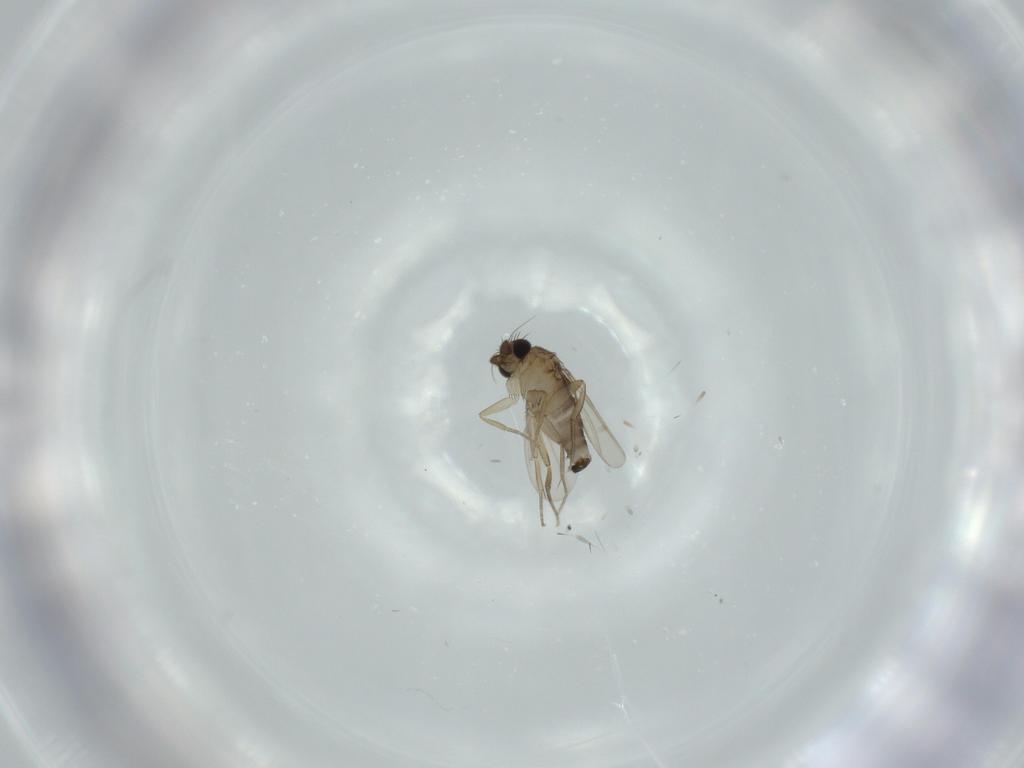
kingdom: Animalia
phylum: Arthropoda
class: Insecta
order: Diptera
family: Phoridae
